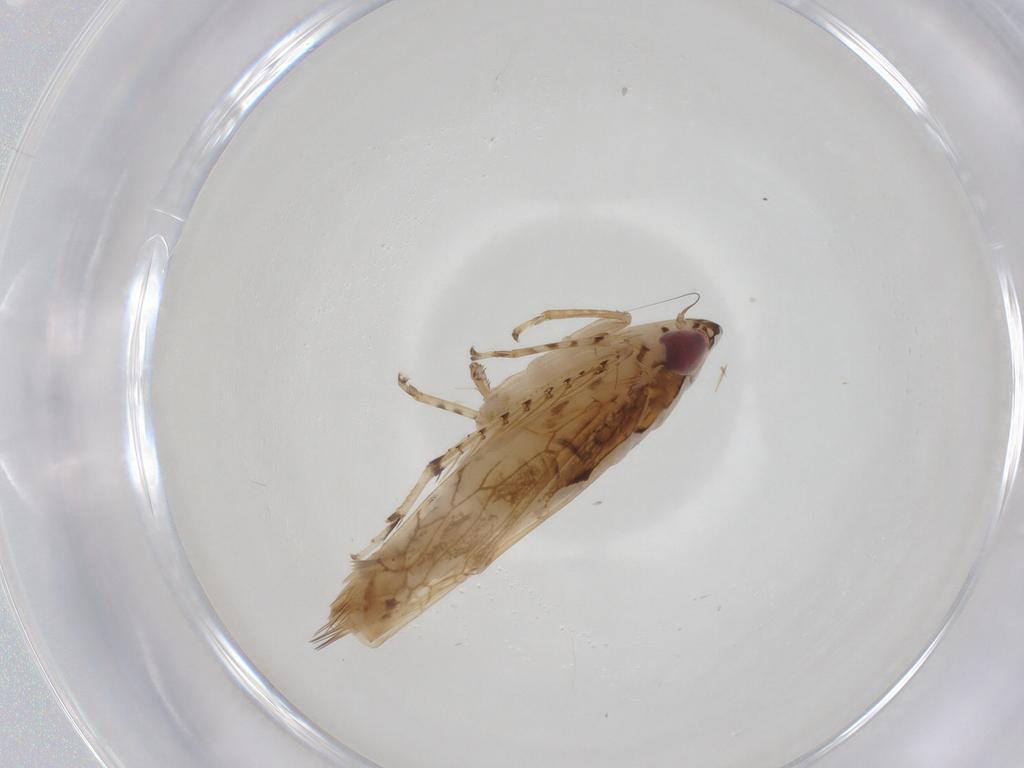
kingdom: Animalia
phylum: Arthropoda
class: Insecta
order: Hemiptera
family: Cicadellidae
